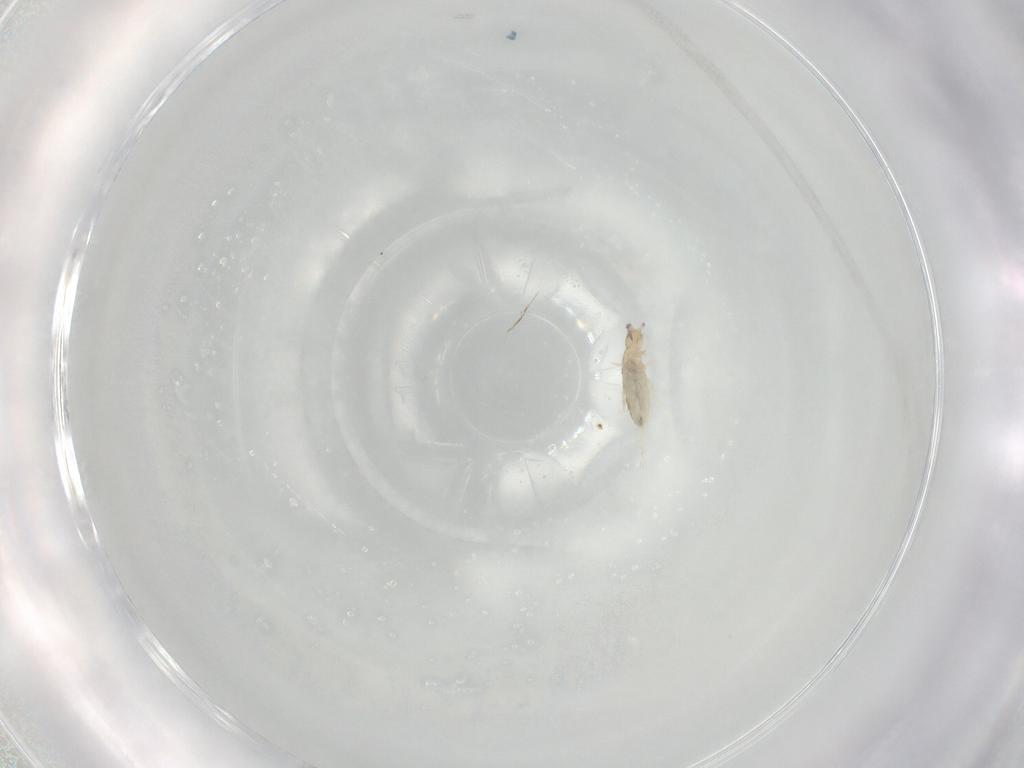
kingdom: Animalia
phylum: Arthropoda
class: Collembola
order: Entomobryomorpha
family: Entomobryidae
